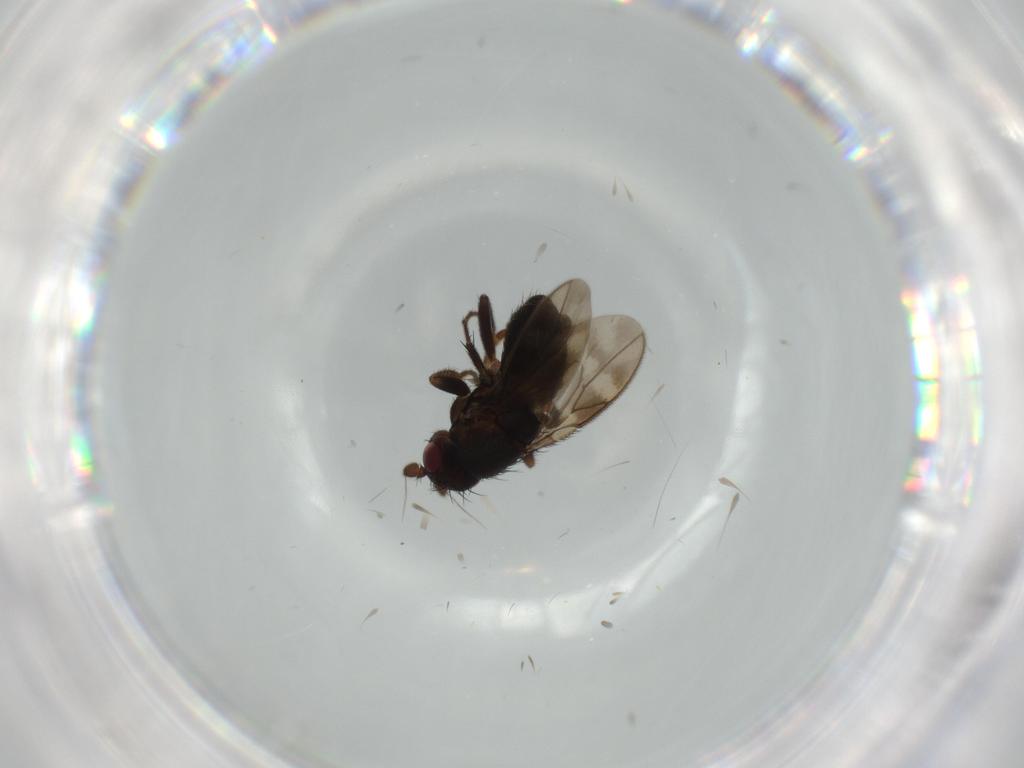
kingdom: Animalia
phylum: Arthropoda
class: Insecta
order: Diptera
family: Sphaeroceridae
